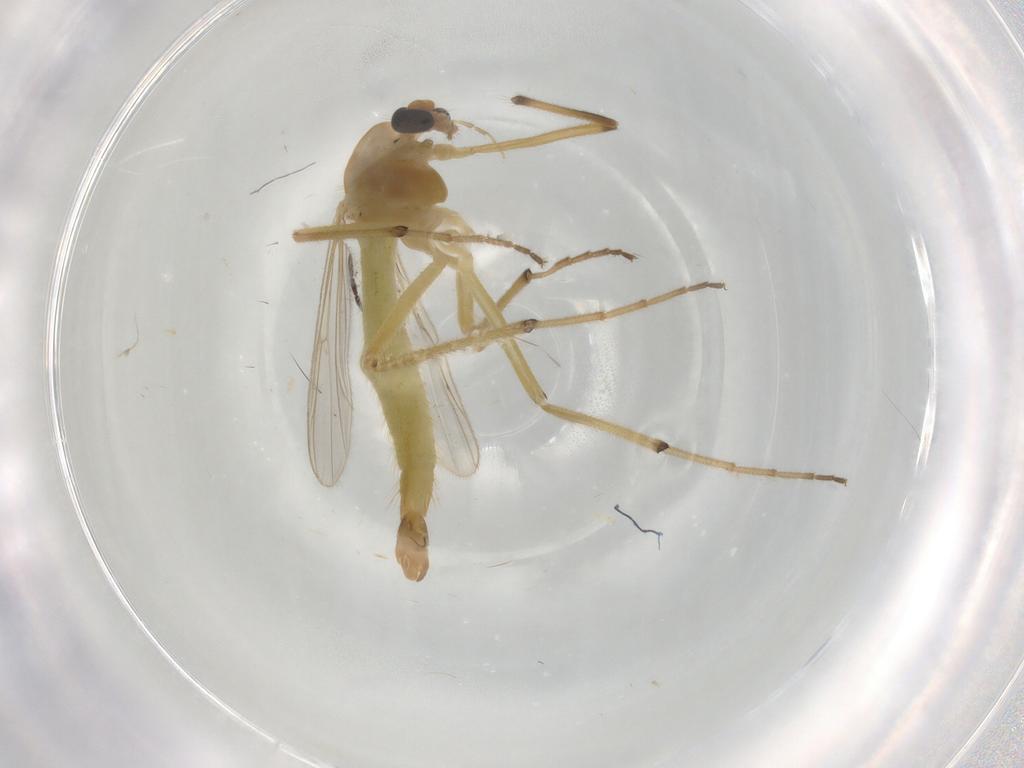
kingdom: Animalia
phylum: Arthropoda
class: Insecta
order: Diptera
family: Chironomidae
